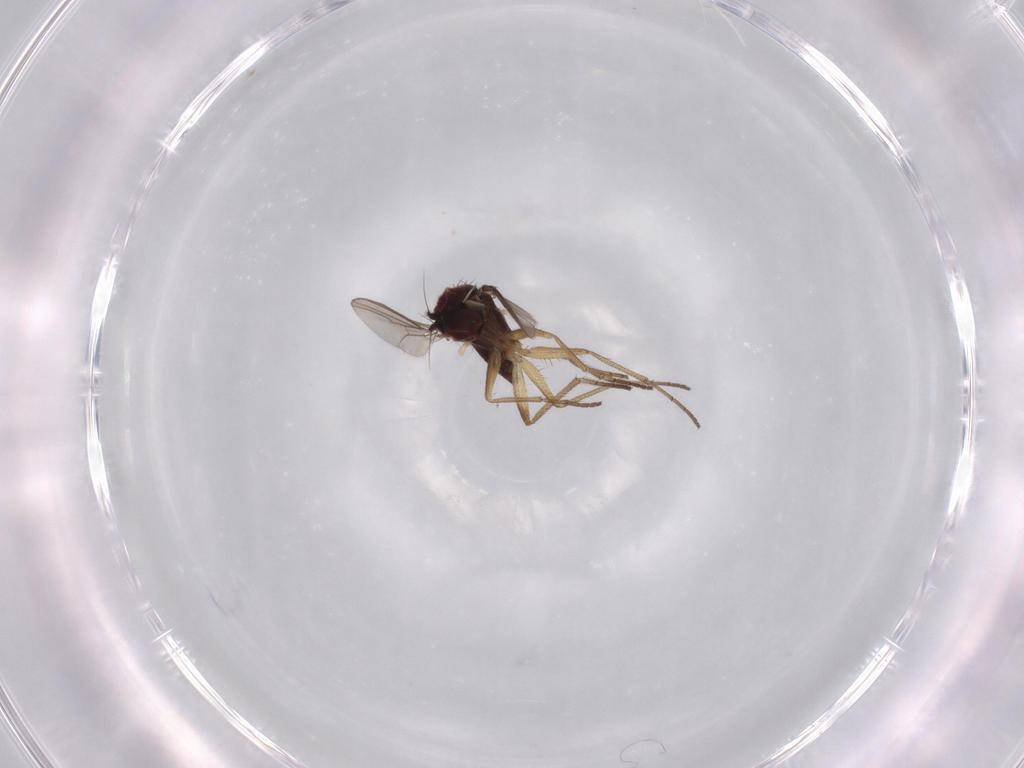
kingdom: Animalia
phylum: Arthropoda
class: Insecta
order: Diptera
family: Dolichopodidae
